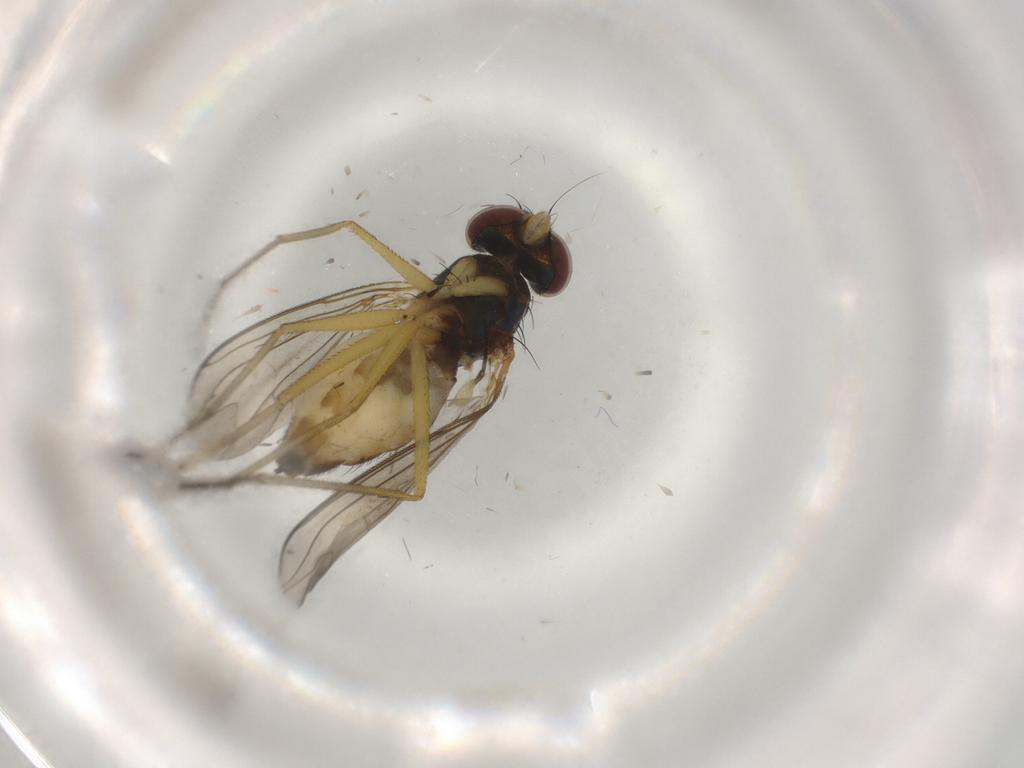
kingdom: Animalia
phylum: Arthropoda
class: Insecta
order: Diptera
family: Dolichopodidae
